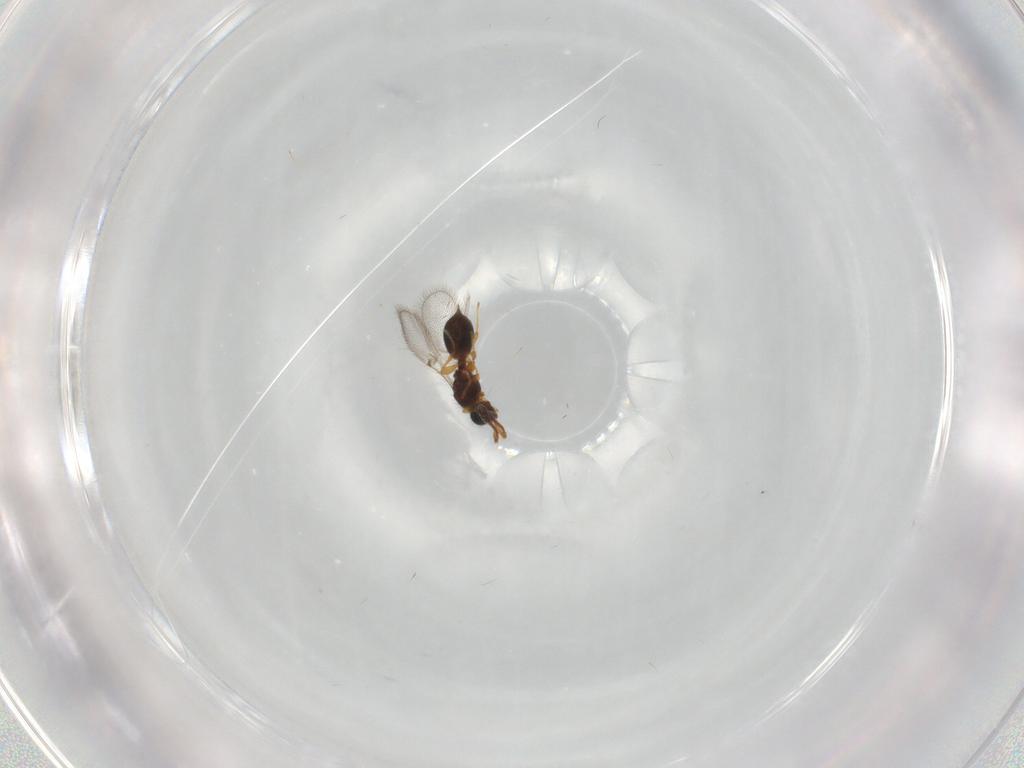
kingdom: Animalia
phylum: Arthropoda
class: Insecta
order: Hymenoptera
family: Diapriidae
